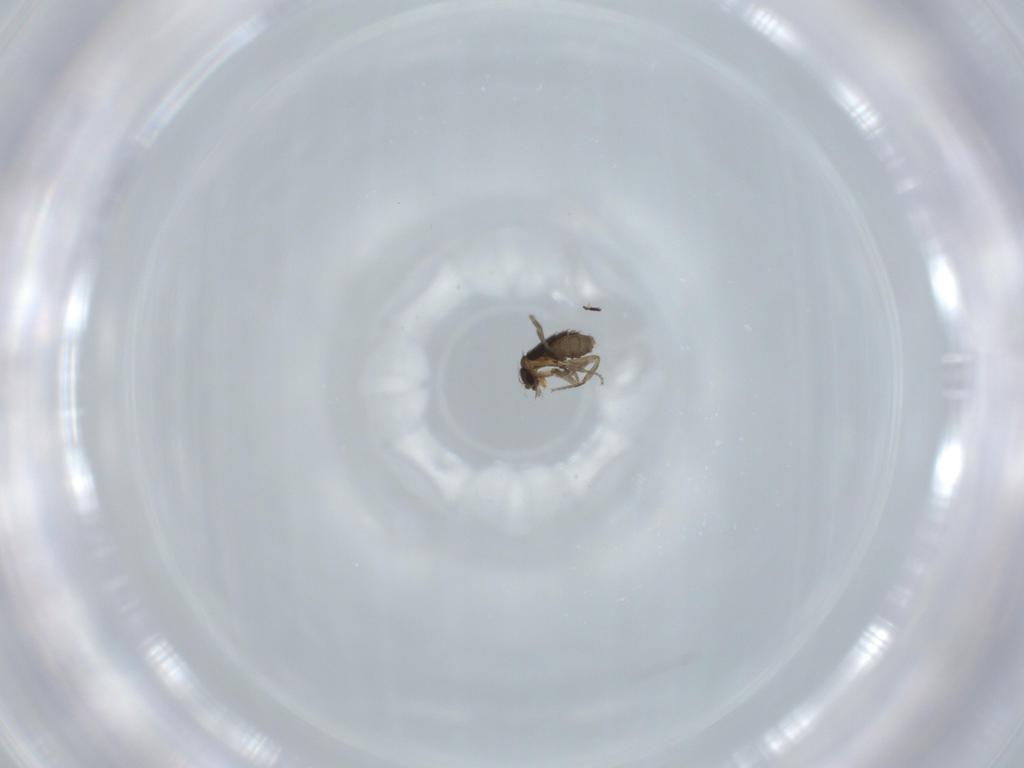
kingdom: Animalia
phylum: Arthropoda
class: Insecta
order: Diptera
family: Phoridae
